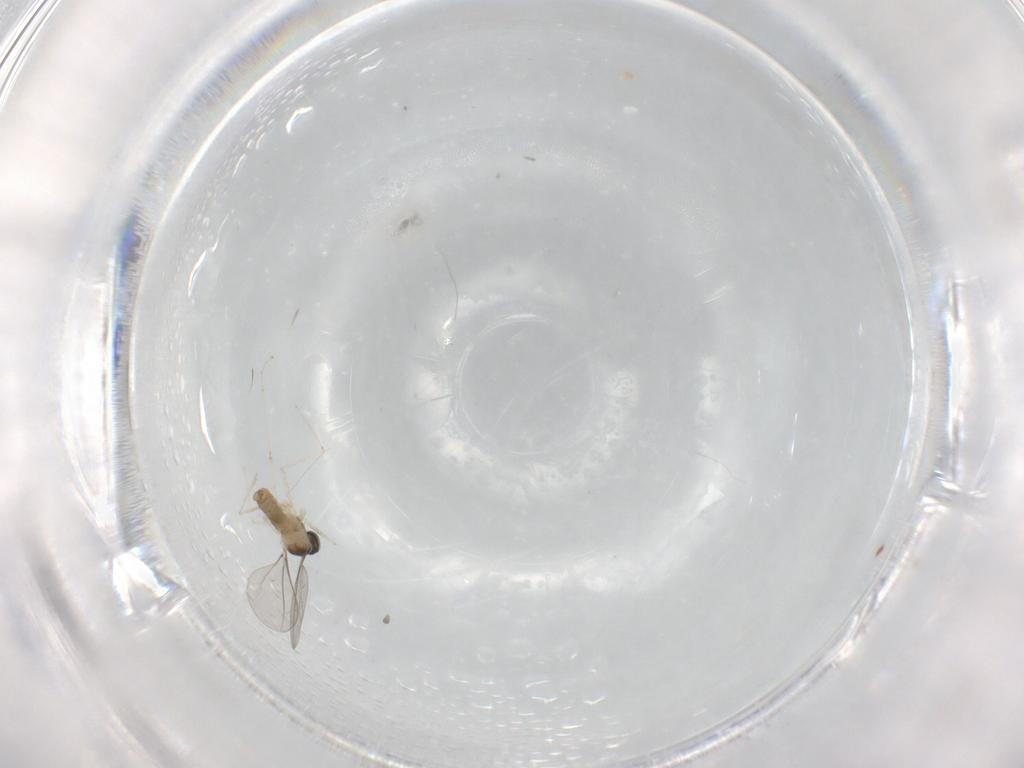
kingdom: Animalia
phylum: Arthropoda
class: Insecta
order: Diptera
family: Cecidomyiidae
